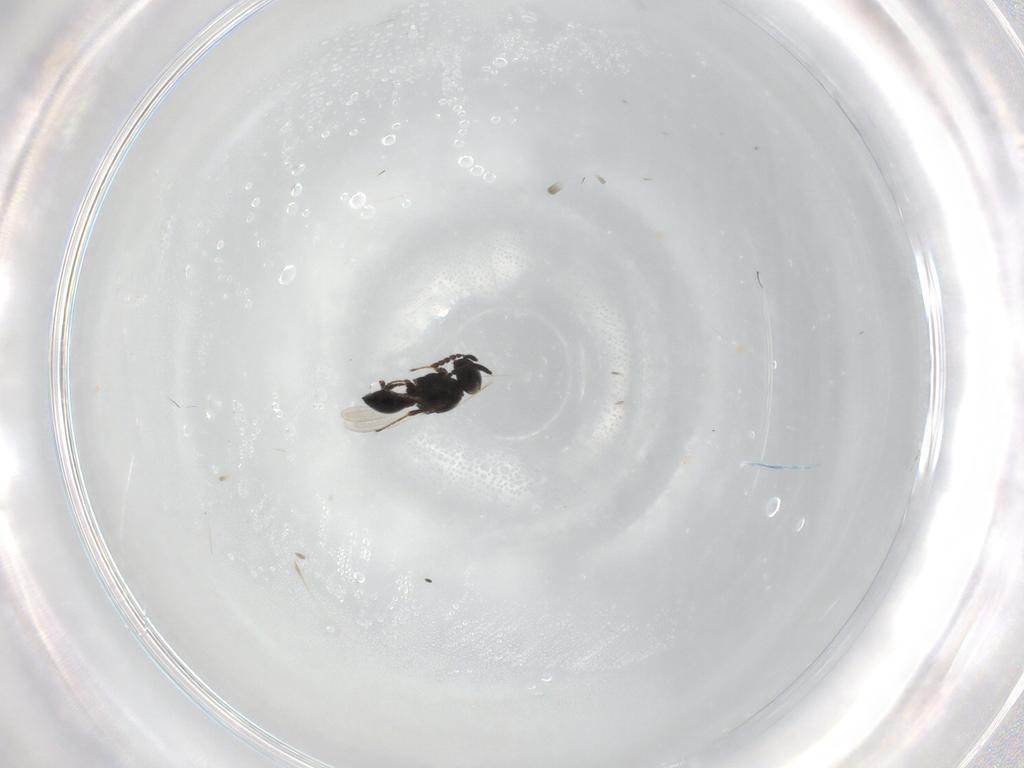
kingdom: Animalia
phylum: Arthropoda
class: Insecta
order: Hymenoptera
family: Platygastridae
